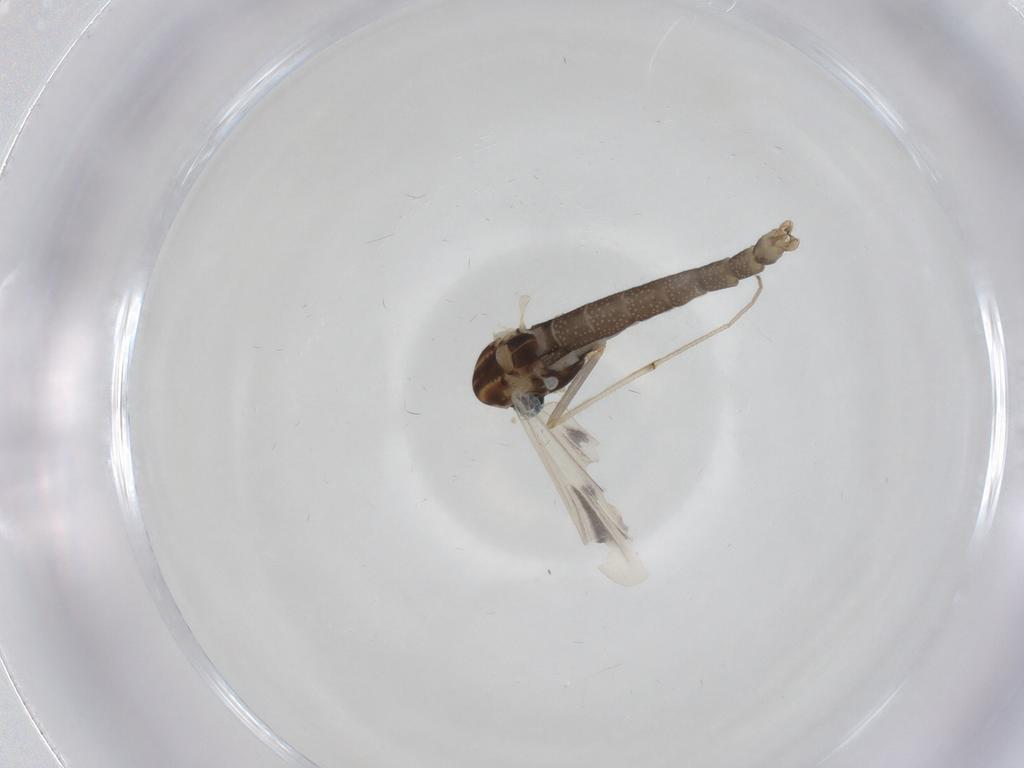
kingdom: Animalia
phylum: Arthropoda
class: Insecta
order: Diptera
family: Chironomidae
